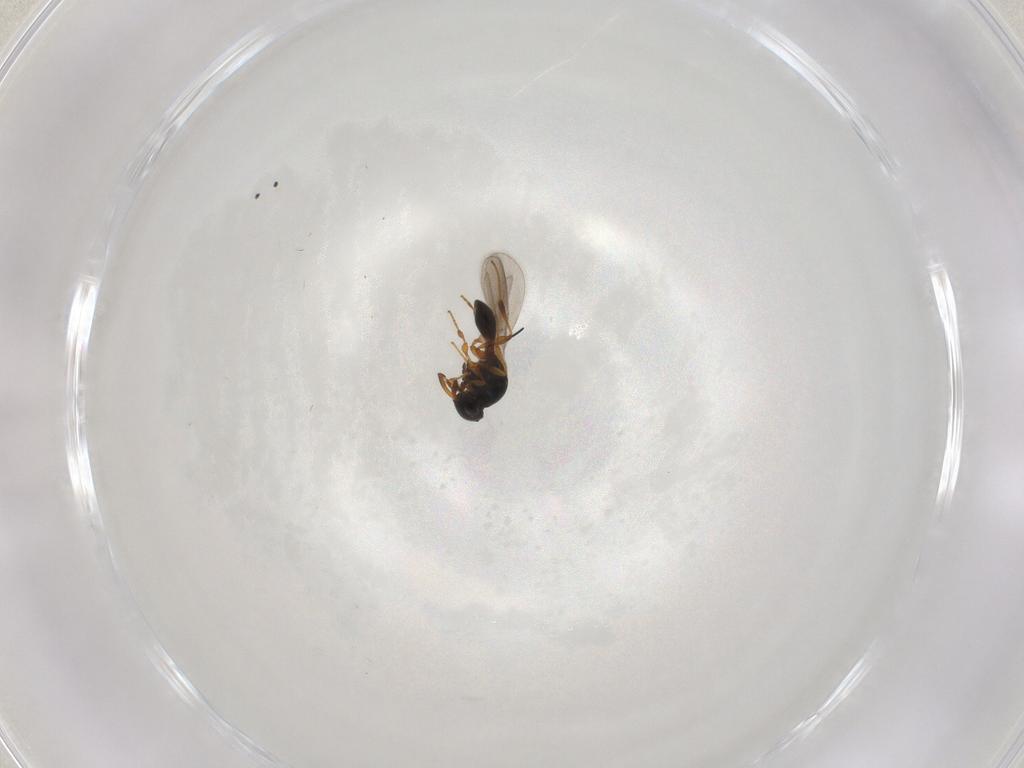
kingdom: Animalia
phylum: Arthropoda
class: Insecta
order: Hymenoptera
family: Platygastridae
